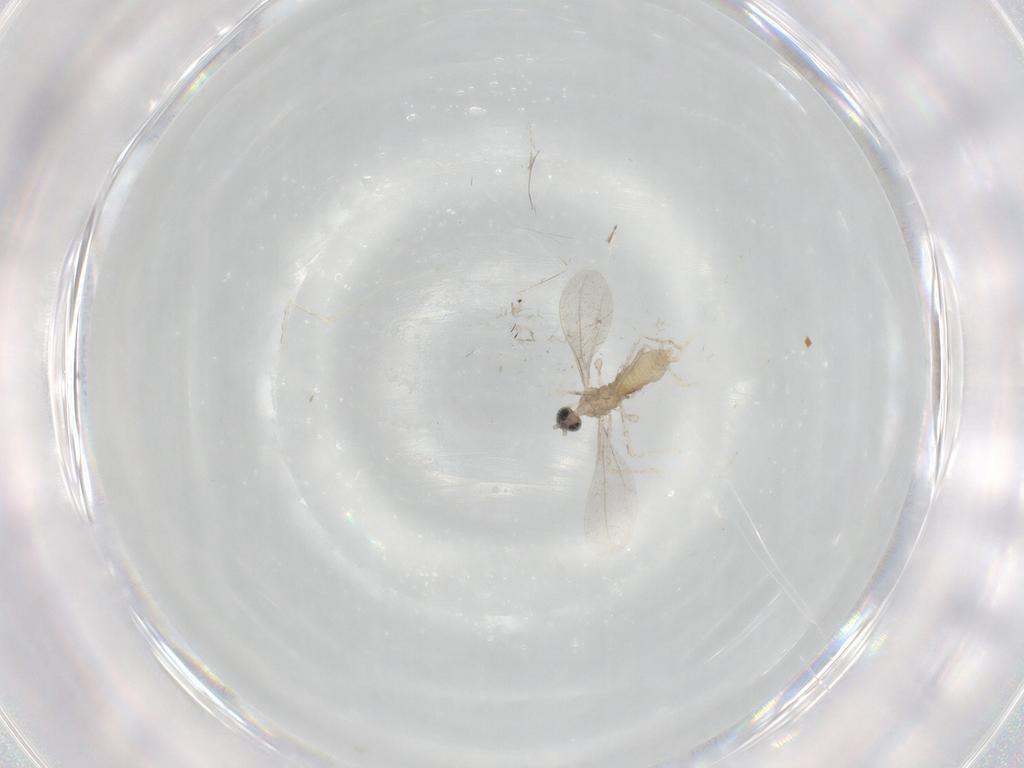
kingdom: Animalia
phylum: Arthropoda
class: Insecta
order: Diptera
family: Cecidomyiidae
